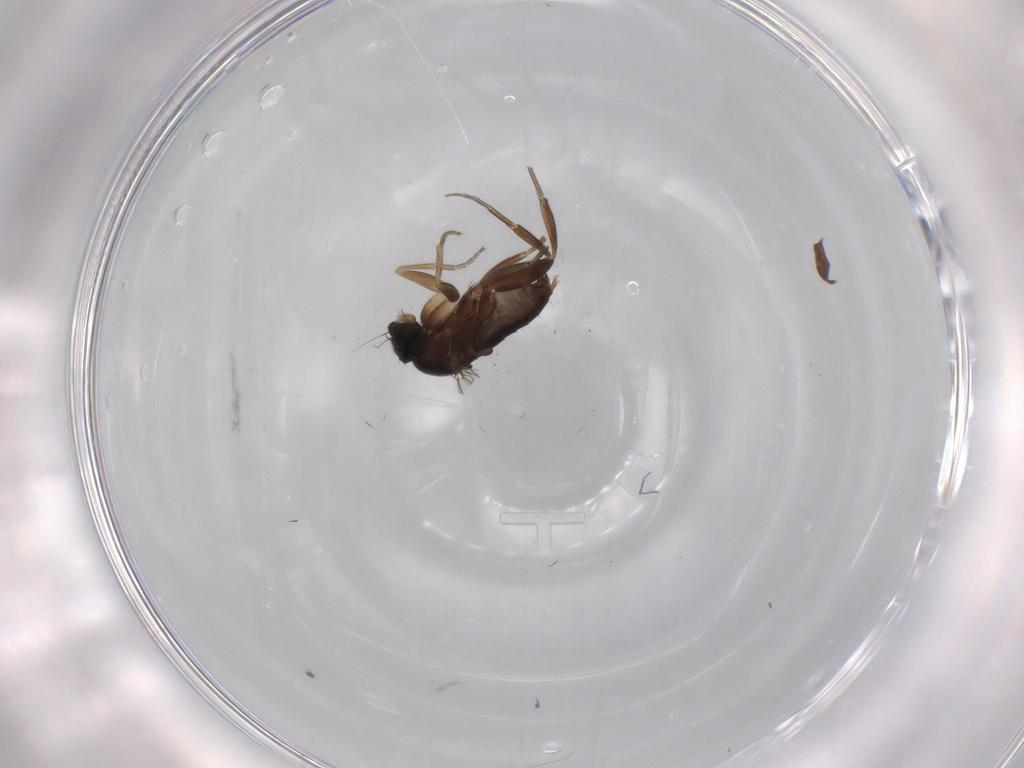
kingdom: Animalia
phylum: Arthropoda
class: Insecta
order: Diptera
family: Phoridae
